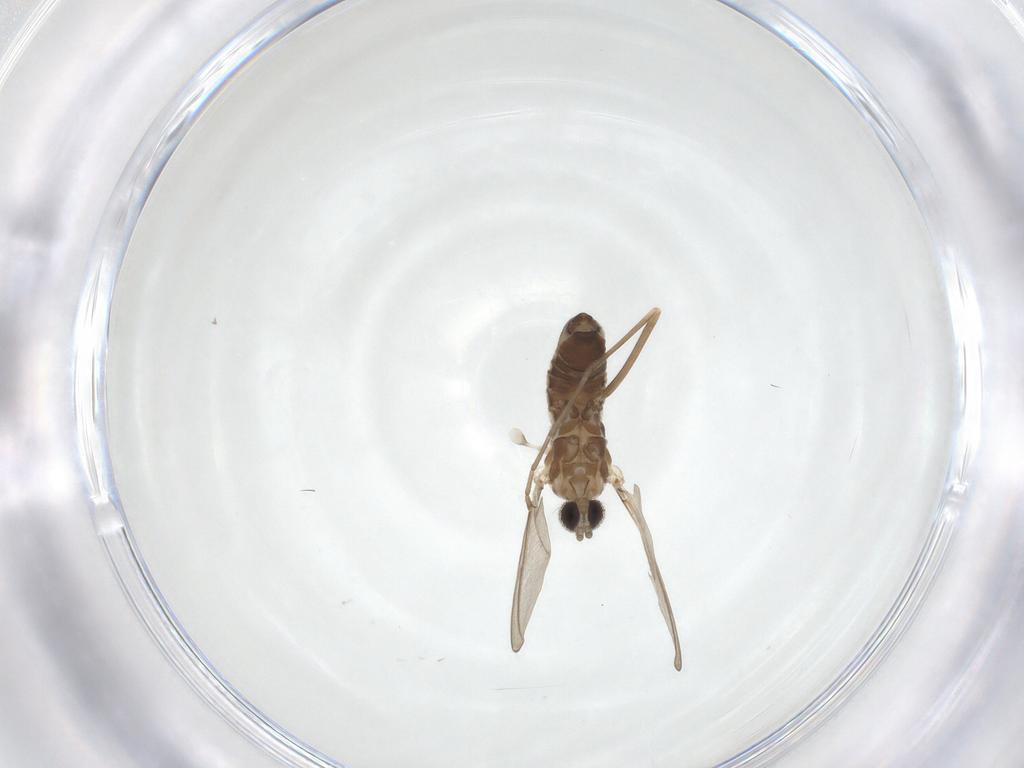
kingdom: Animalia
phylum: Arthropoda
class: Insecta
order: Diptera
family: Cecidomyiidae
